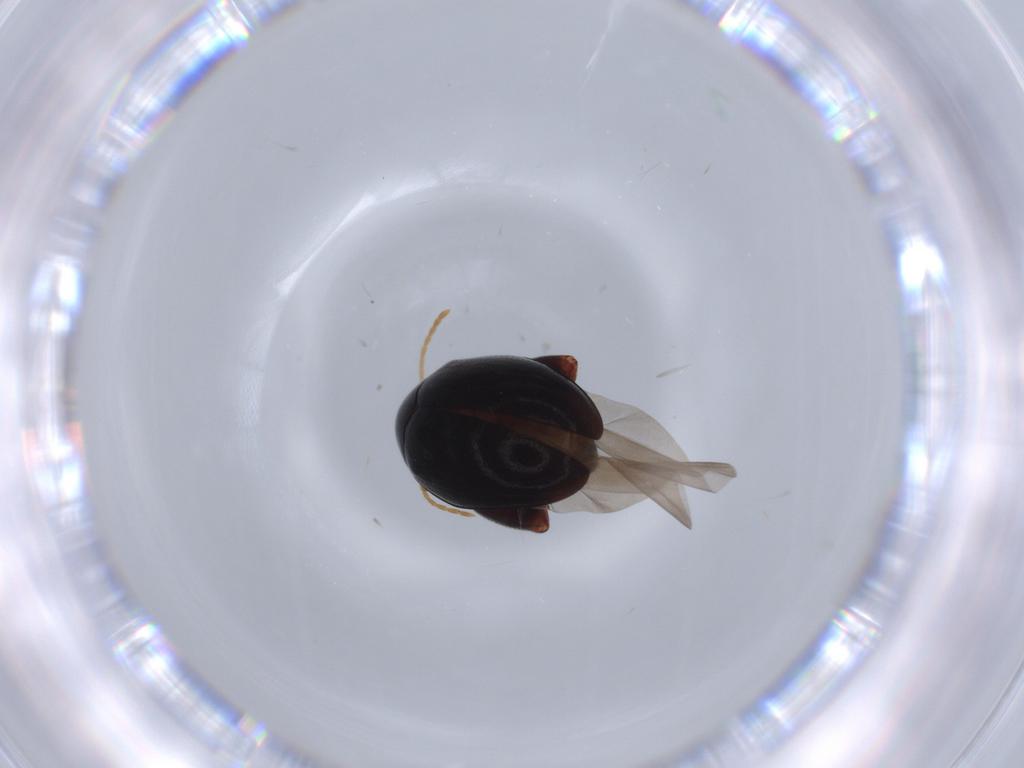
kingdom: Animalia
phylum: Arthropoda
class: Insecta
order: Coleoptera
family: Chrysomelidae
